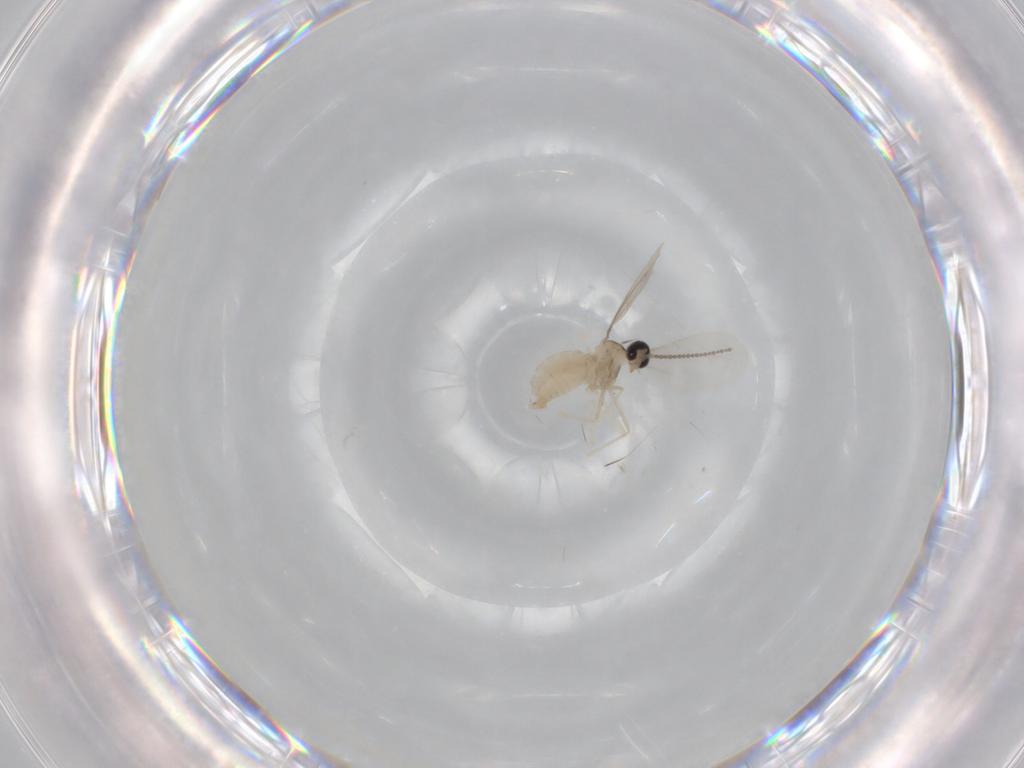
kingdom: Animalia
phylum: Arthropoda
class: Insecta
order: Diptera
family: Cecidomyiidae
